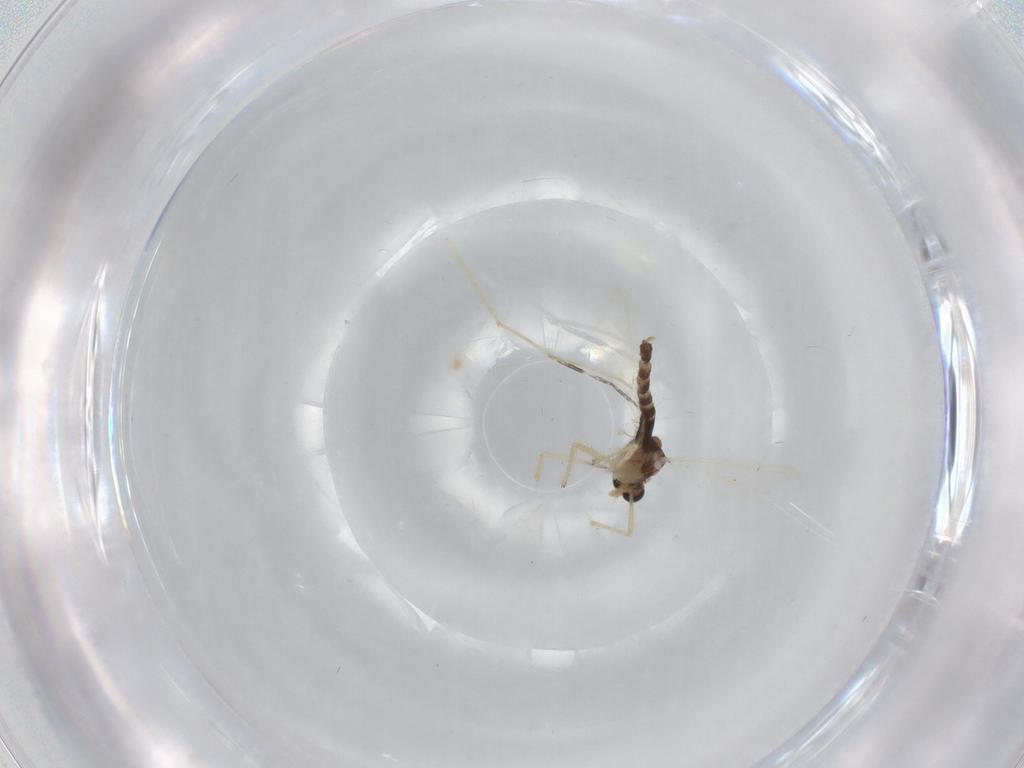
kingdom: Animalia
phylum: Arthropoda
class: Insecta
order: Diptera
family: Chironomidae
